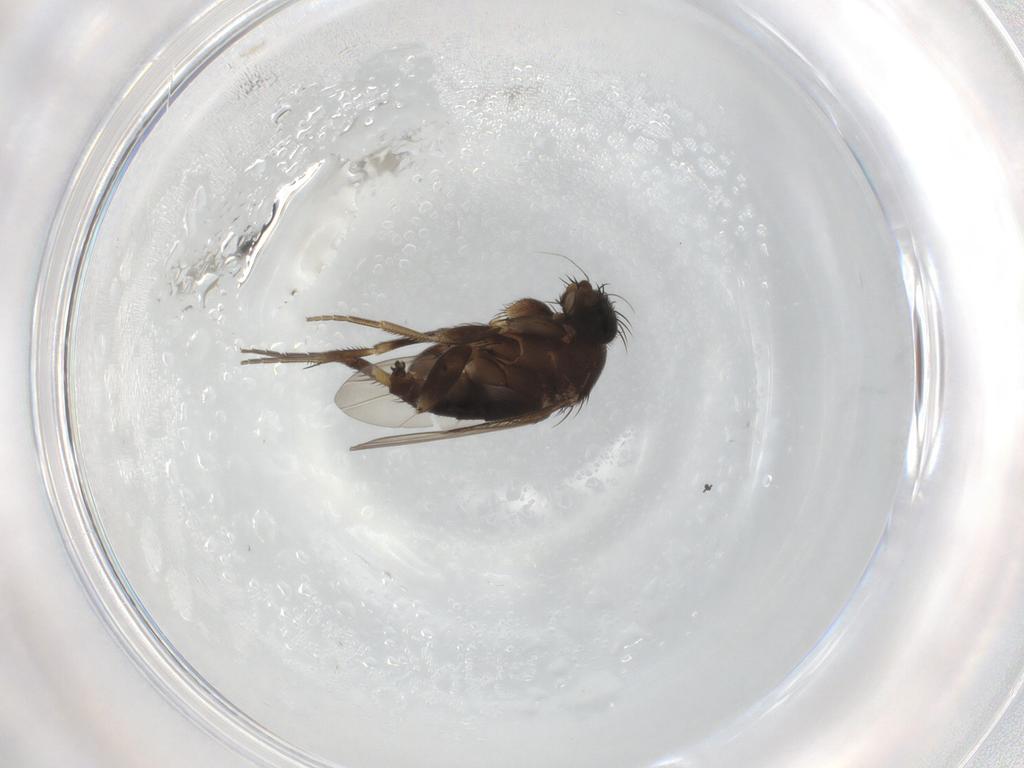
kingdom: Animalia
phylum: Arthropoda
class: Insecta
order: Diptera
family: Phoridae
